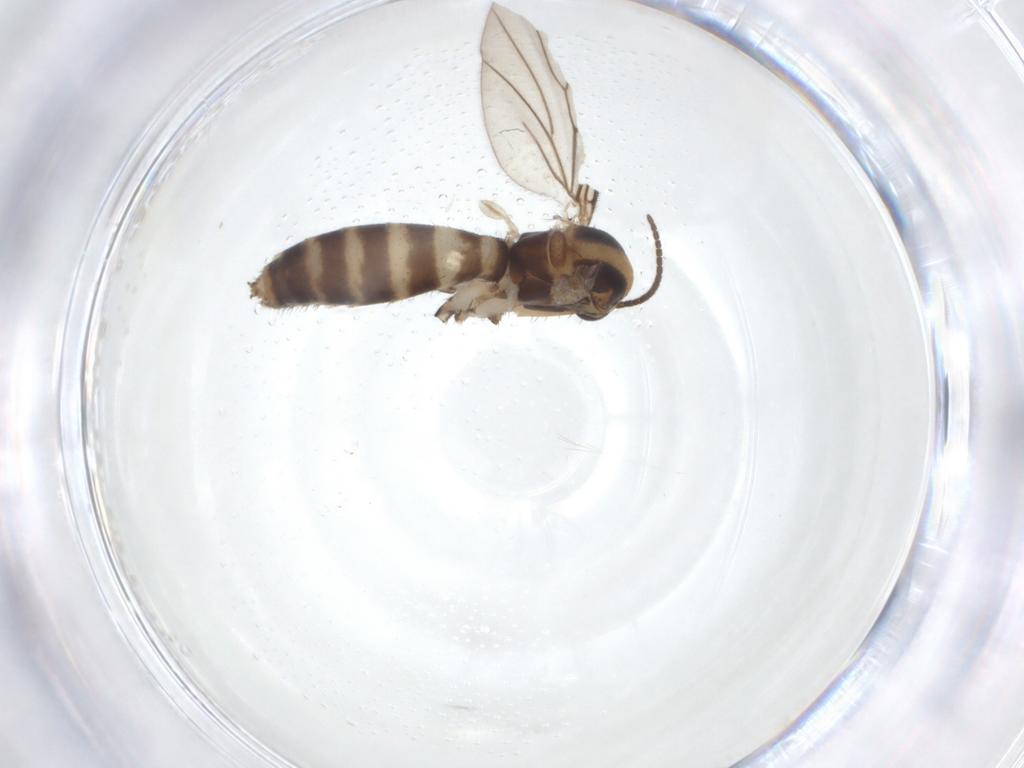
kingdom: Animalia
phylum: Arthropoda
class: Insecta
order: Diptera
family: Mycetophilidae
